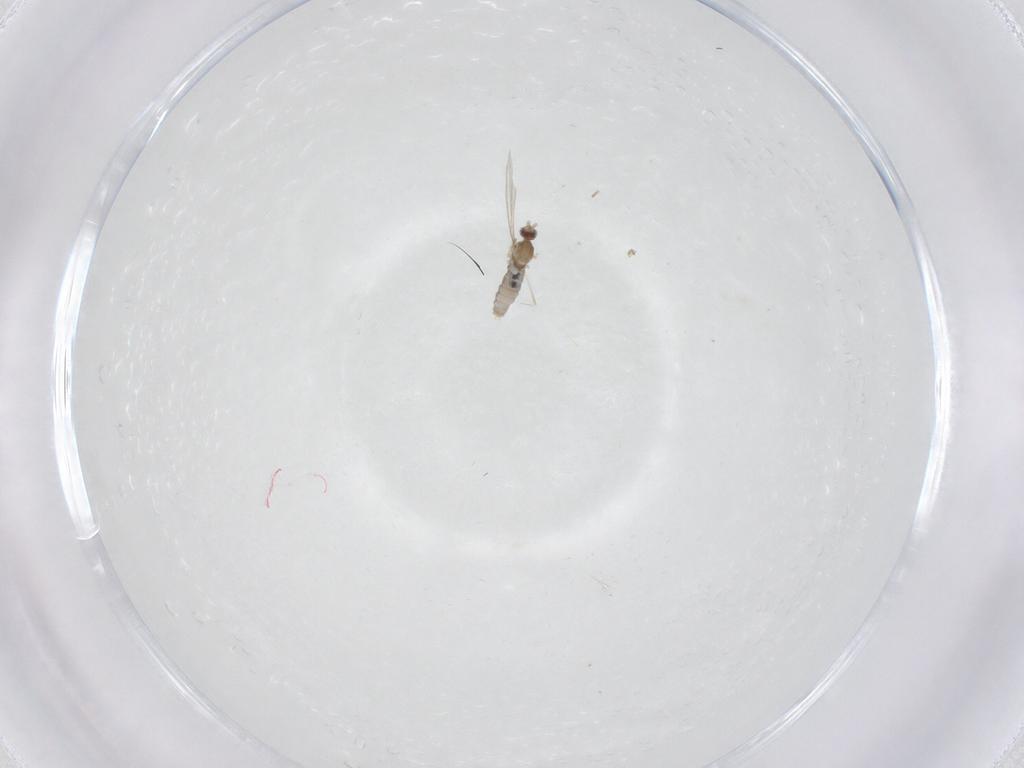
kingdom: Animalia
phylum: Arthropoda
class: Insecta
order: Diptera
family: Cecidomyiidae
